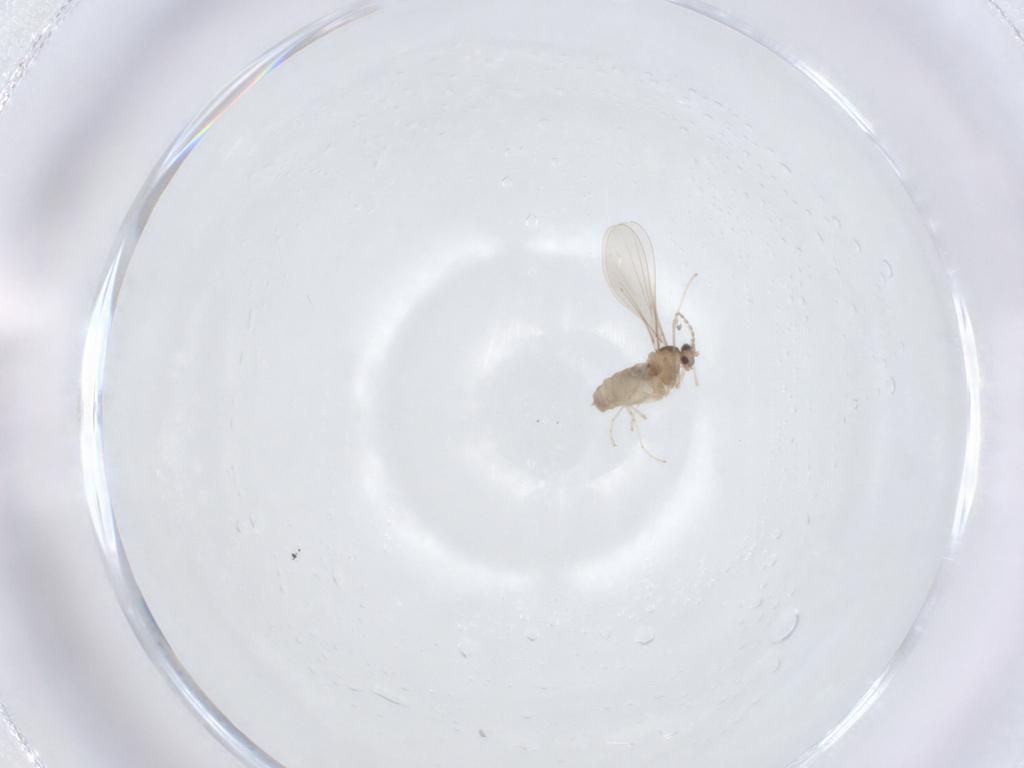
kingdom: Animalia
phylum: Arthropoda
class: Insecta
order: Diptera
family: Cecidomyiidae
